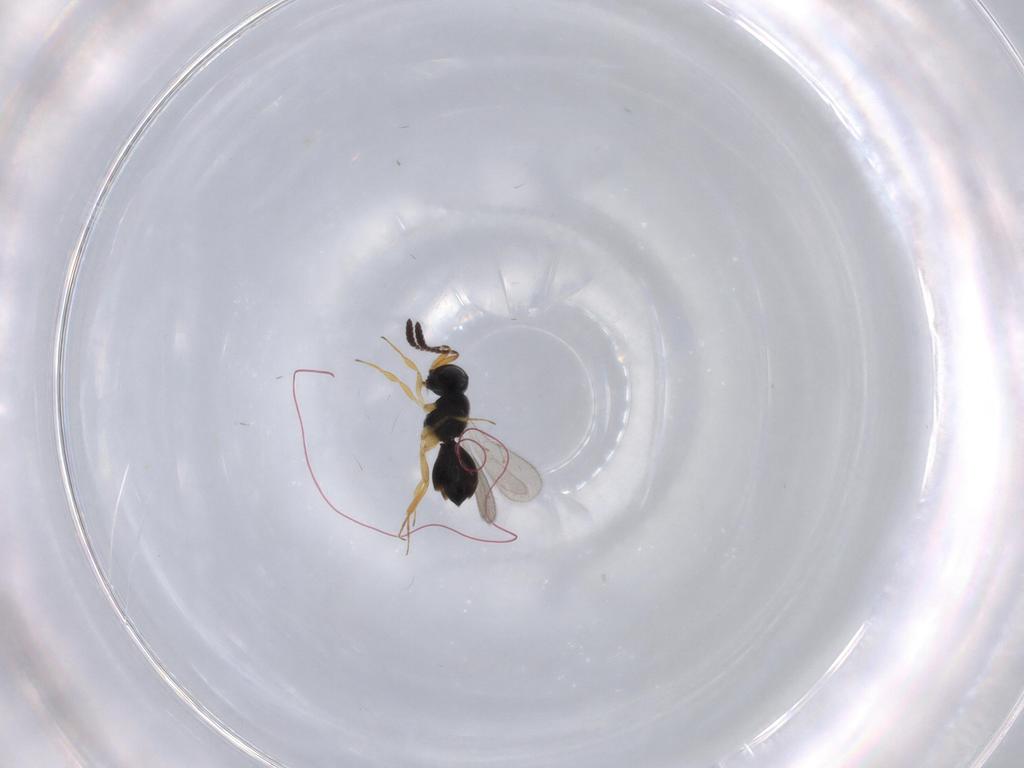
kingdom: Animalia
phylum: Arthropoda
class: Insecta
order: Hymenoptera
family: Scelionidae
